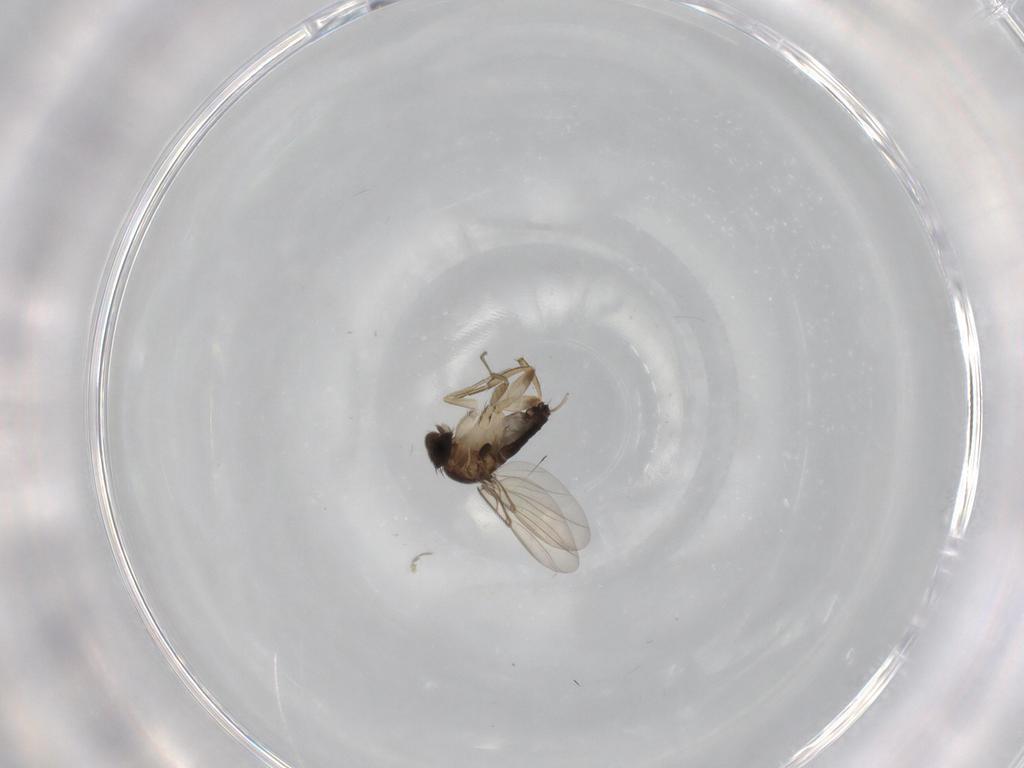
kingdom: Animalia
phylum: Arthropoda
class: Insecta
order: Diptera
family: Phoridae
